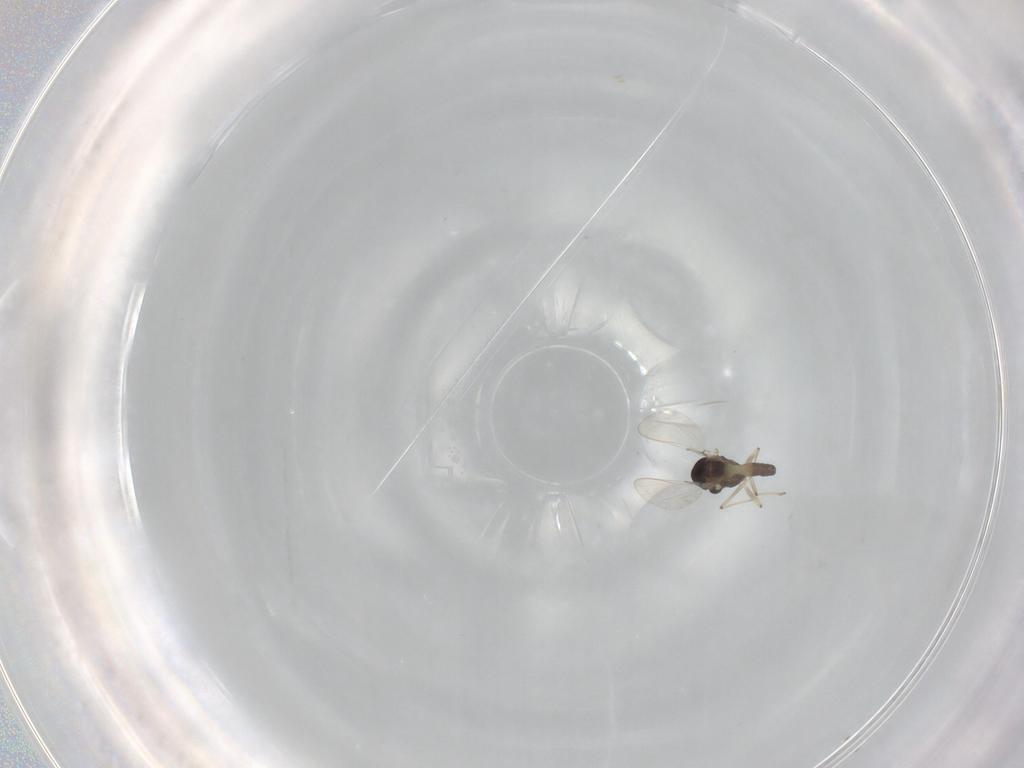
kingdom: Animalia
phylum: Arthropoda
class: Insecta
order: Diptera
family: Chironomidae
